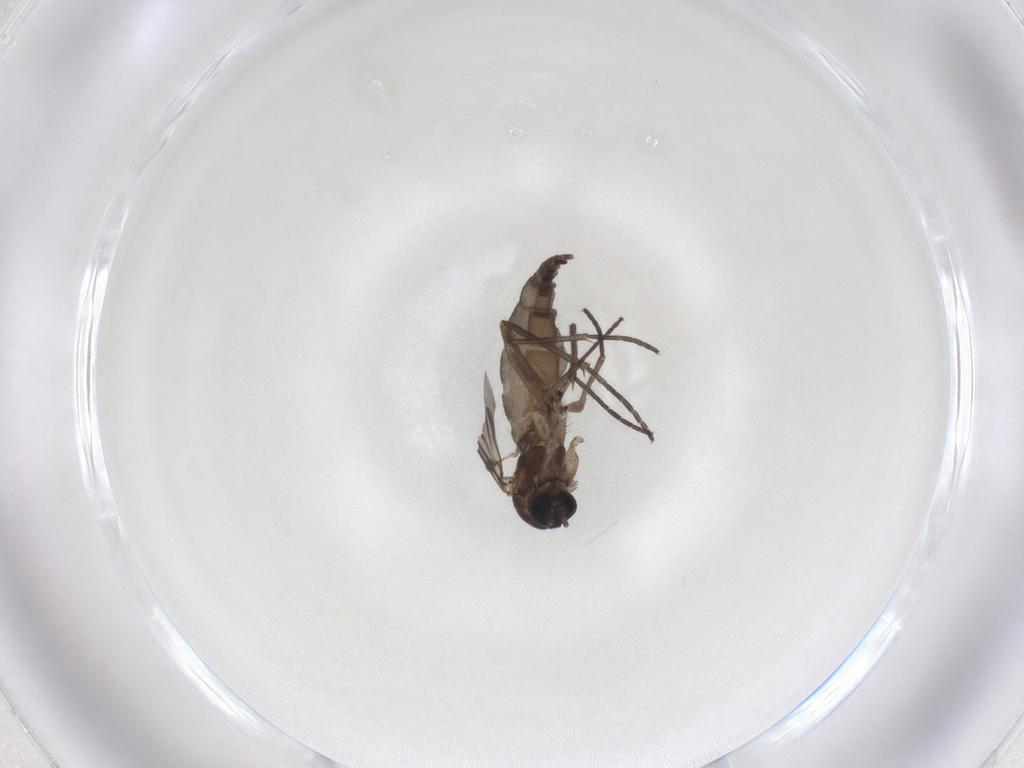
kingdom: Animalia
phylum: Arthropoda
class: Insecta
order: Diptera
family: Sciaridae
